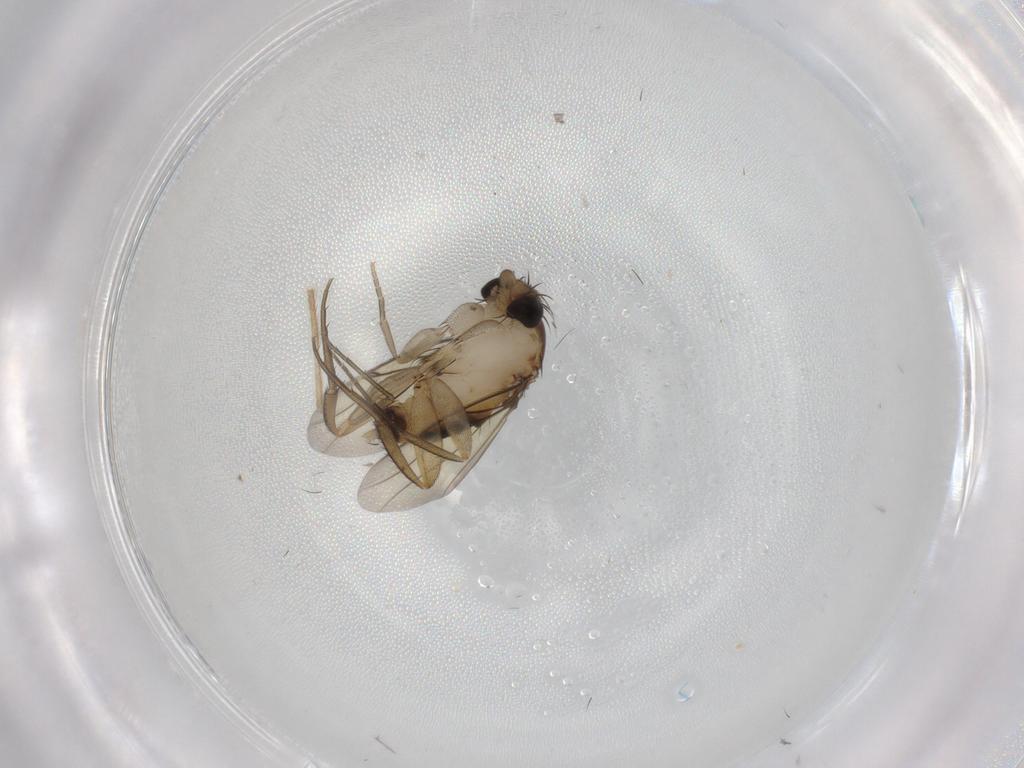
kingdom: Animalia
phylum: Arthropoda
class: Insecta
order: Diptera
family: Phoridae
